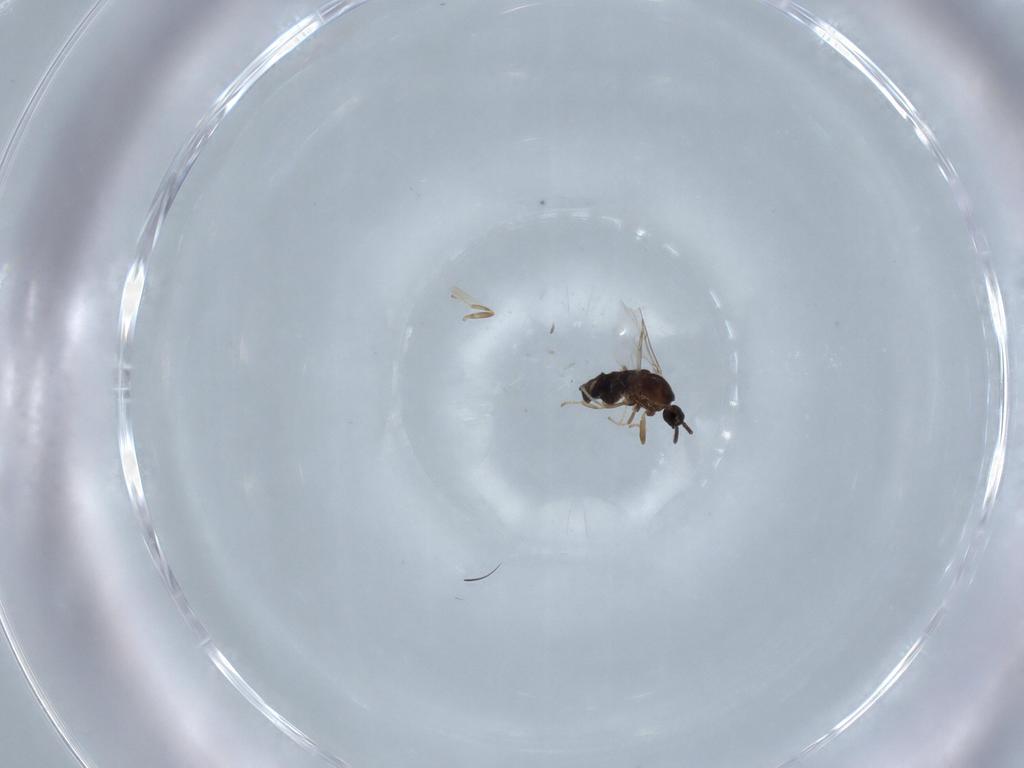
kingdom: Animalia
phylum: Arthropoda
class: Insecta
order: Diptera
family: Scatopsidae
